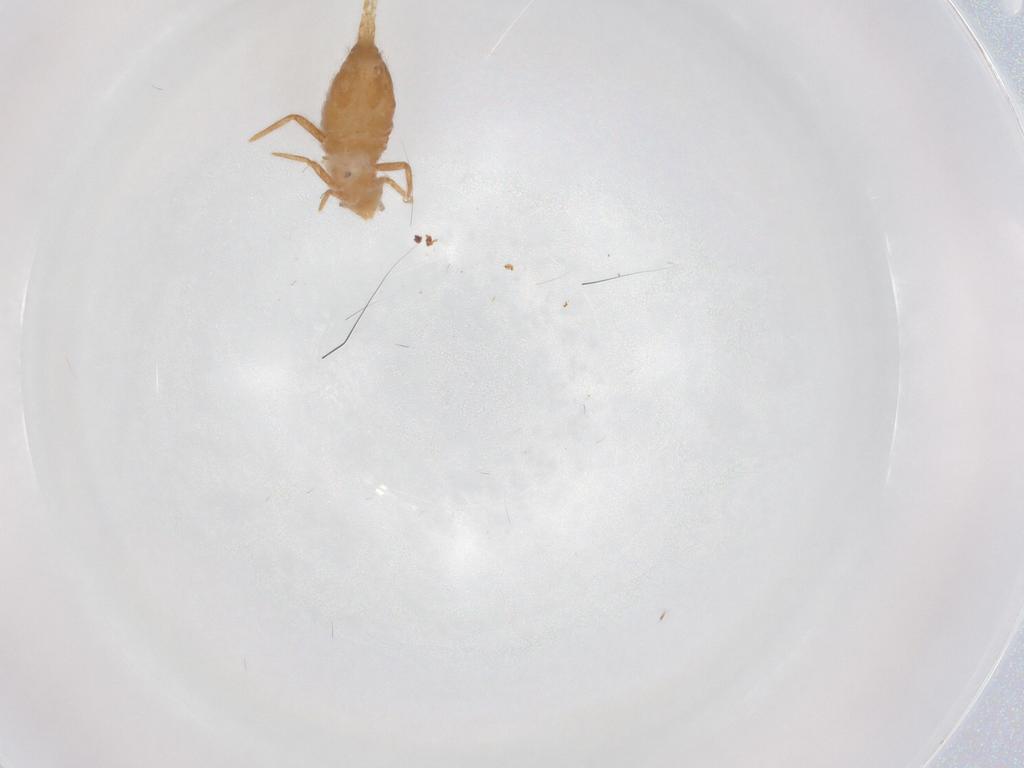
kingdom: Animalia
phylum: Arthropoda
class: Collembola
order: Entomobryomorpha
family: Entomobryidae
